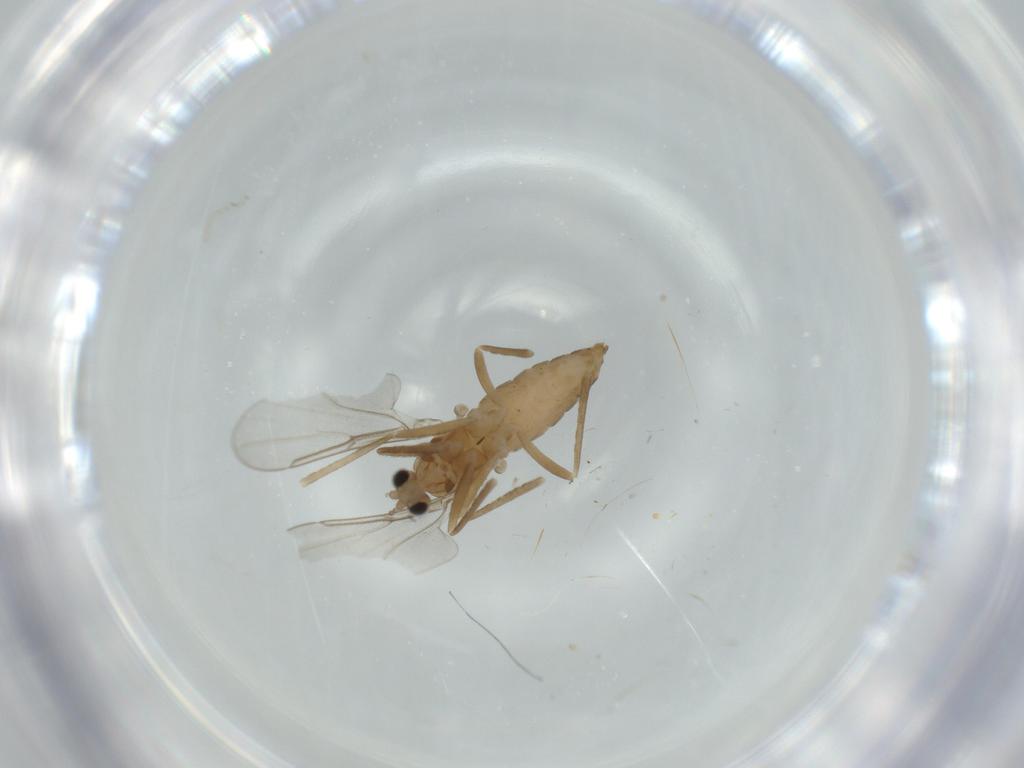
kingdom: Animalia
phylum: Arthropoda
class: Insecta
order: Diptera
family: Cecidomyiidae
